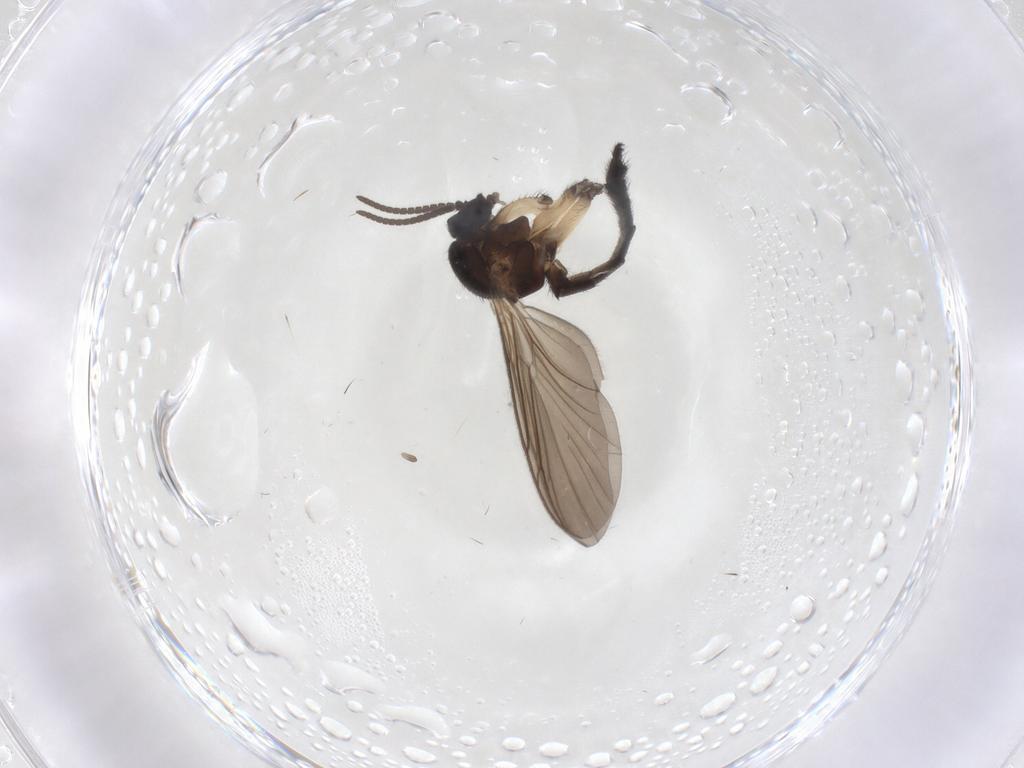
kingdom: Animalia
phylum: Arthropoda
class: Insecta
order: Diptera
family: Keroplatidae
